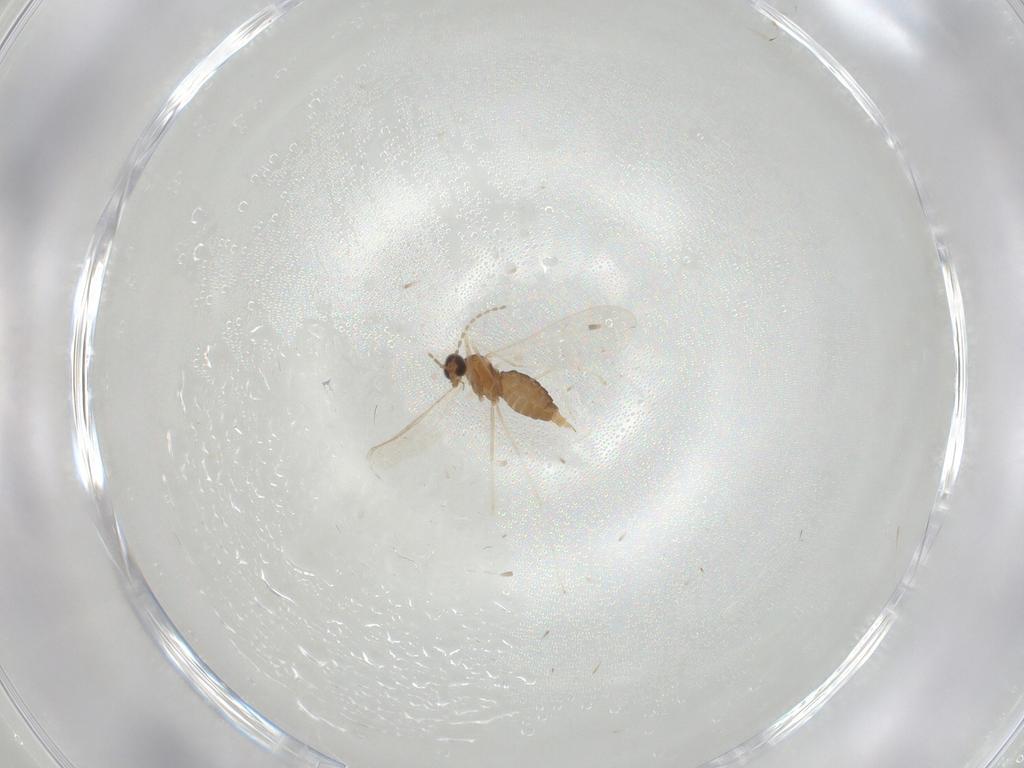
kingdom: Animalia
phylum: Arthropoda
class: Insecta
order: Diptera
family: Cecidomyiidae
